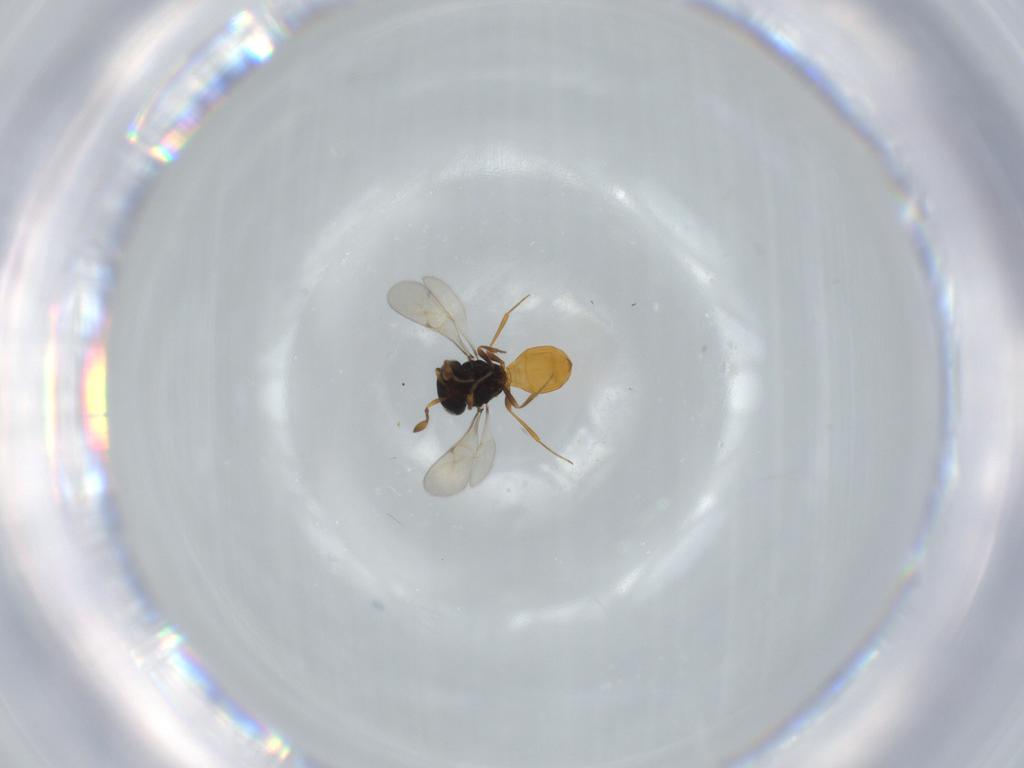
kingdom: Animalia
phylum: Arthropoda
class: Insecta
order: Hymenoptera
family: Scelionidae
